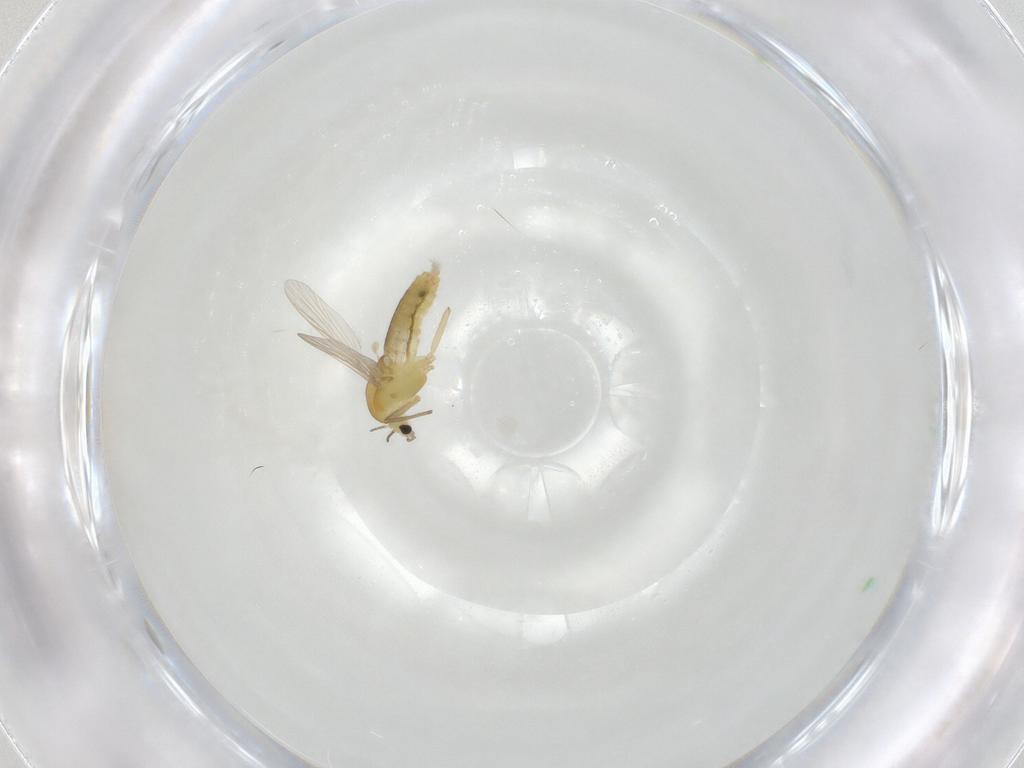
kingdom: Animalia
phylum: Arthropoda
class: Insecta
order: Diptera
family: Chironomidae
